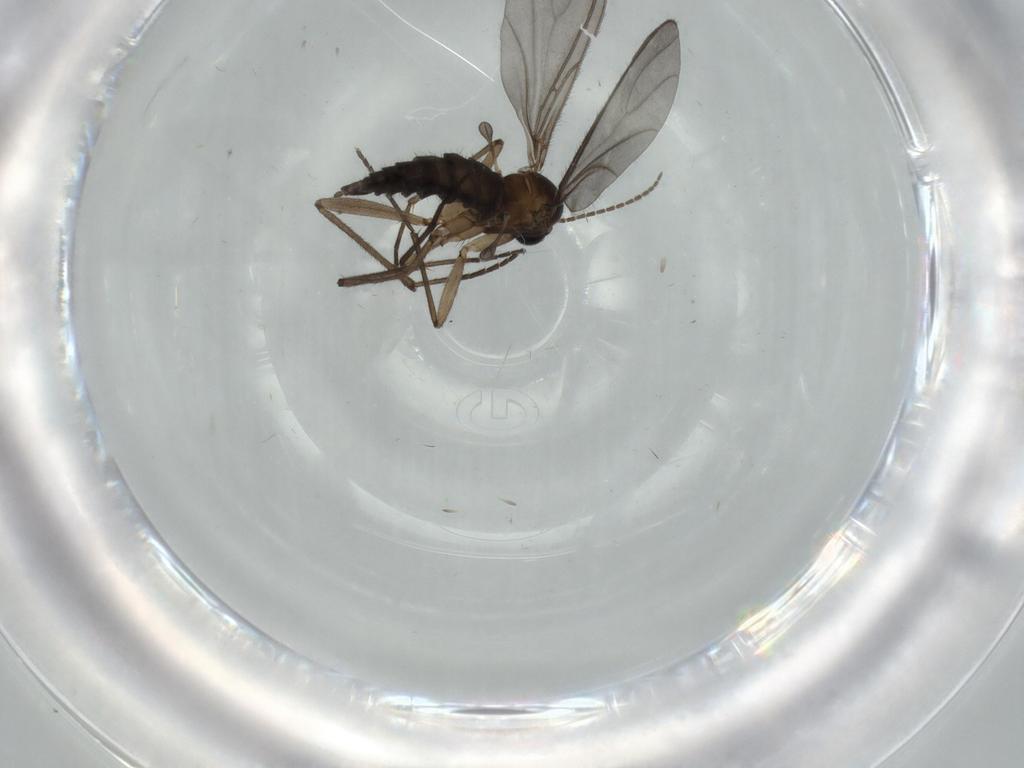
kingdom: Animalia
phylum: Arthropoda
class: Insecta
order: Diptera
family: Sciaridae
